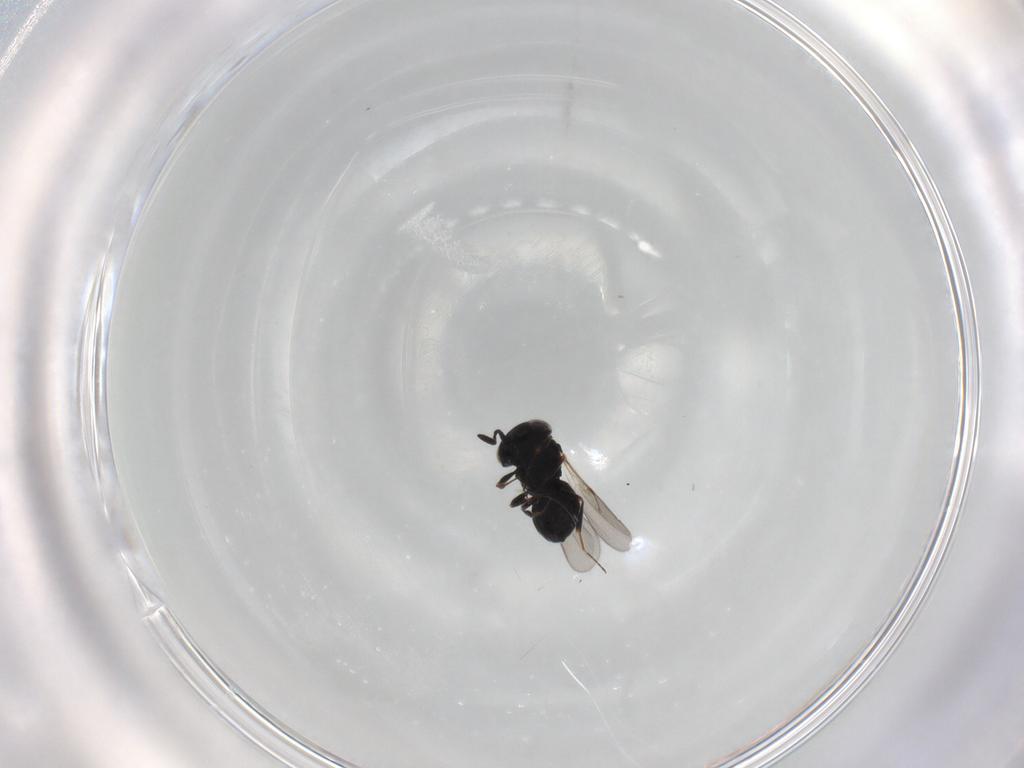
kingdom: Animalia
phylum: Arthropoda
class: Insecta
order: Hymenoptera
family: Scelionidae
